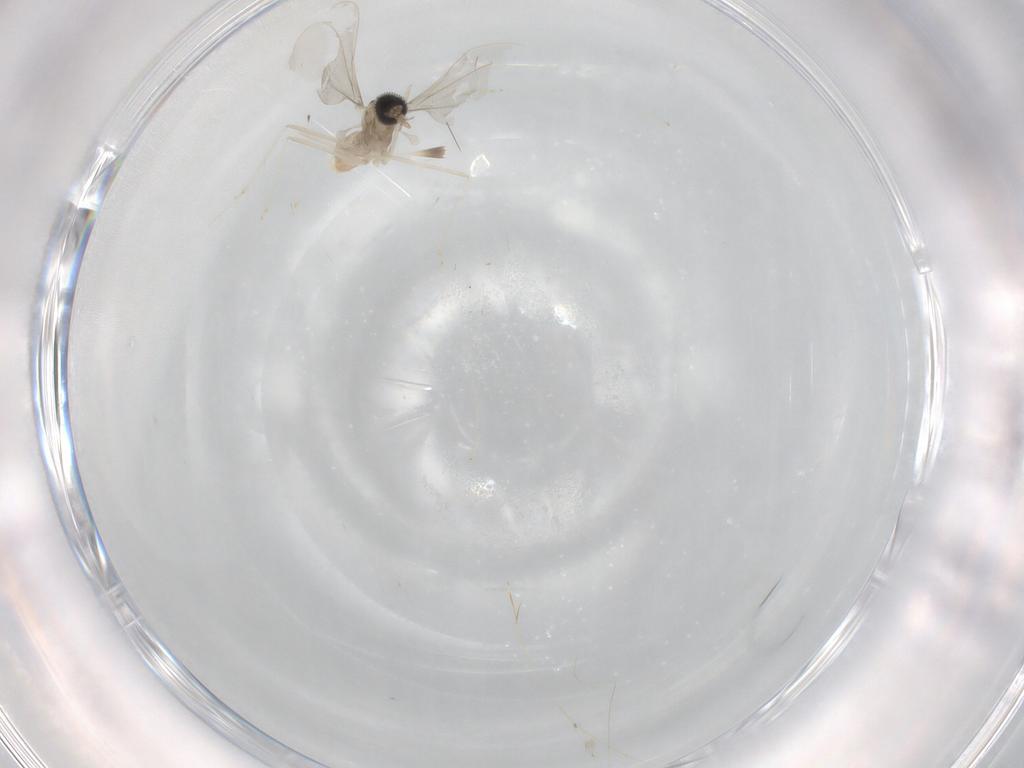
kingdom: Animalia
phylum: Arthropoda
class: Insecta
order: Diptera
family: Cecidomyiidae
